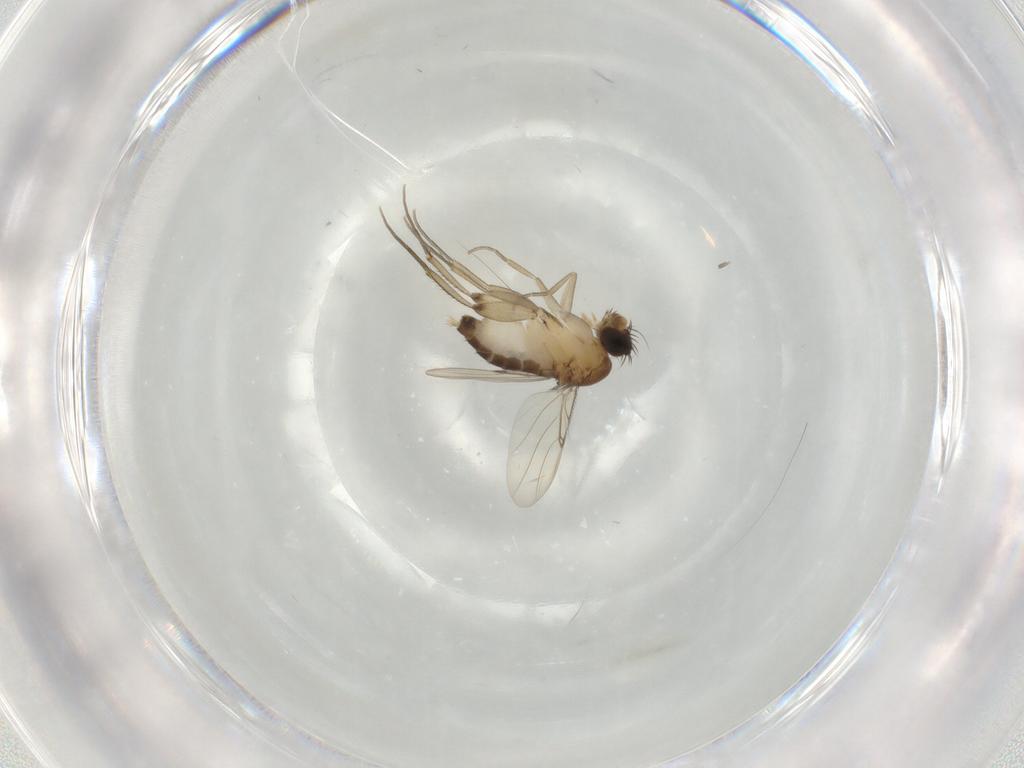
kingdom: Animalia
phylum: Arthropoda
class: Insecta
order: Diptera
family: Phoridae
